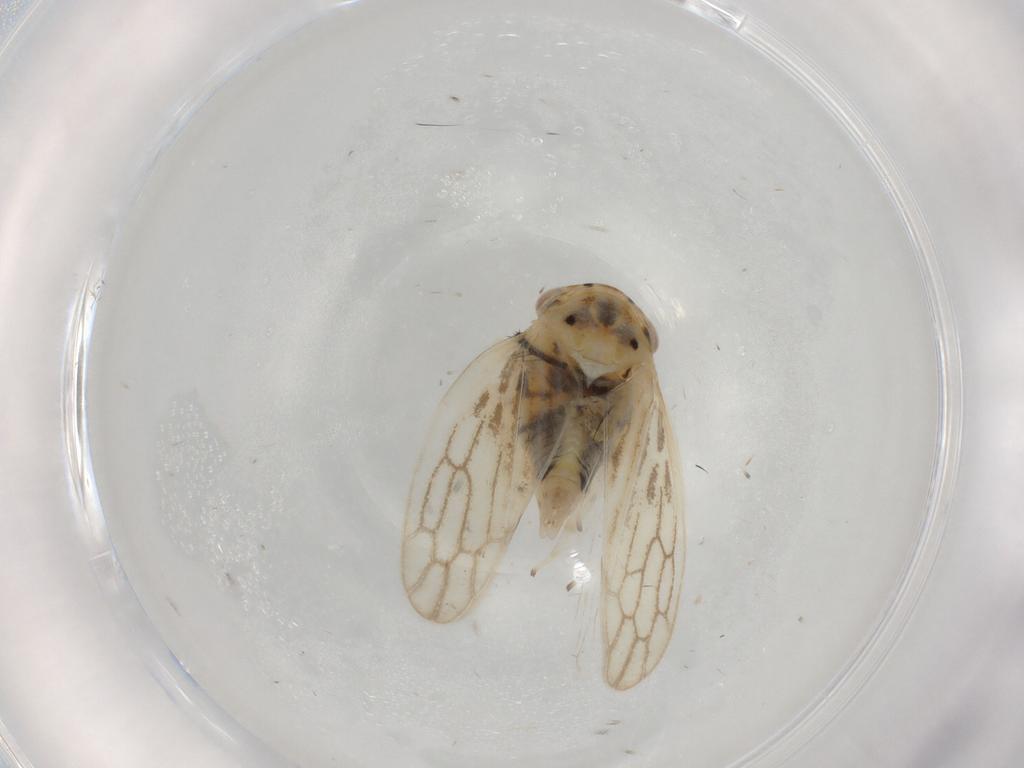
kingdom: Animalia
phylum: Arthropoda
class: Insecta
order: Hemiptera
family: Cicadellidae
